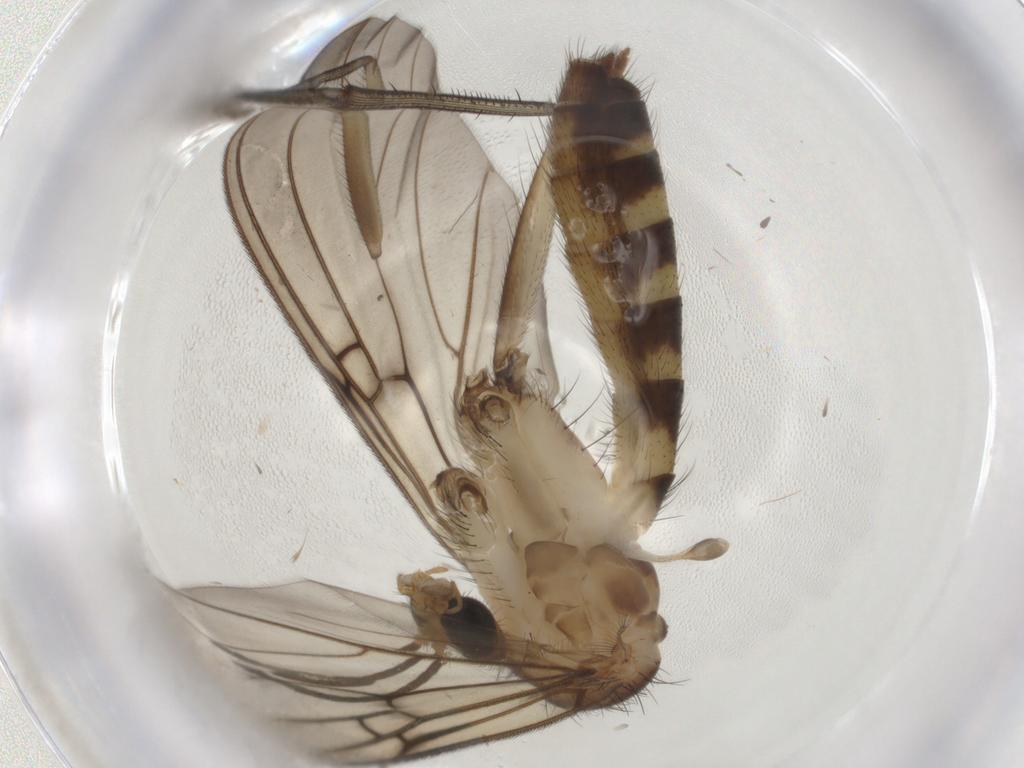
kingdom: Animalia
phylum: Arthropoda
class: Insecta
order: Diptera
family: Mycetophilidae
